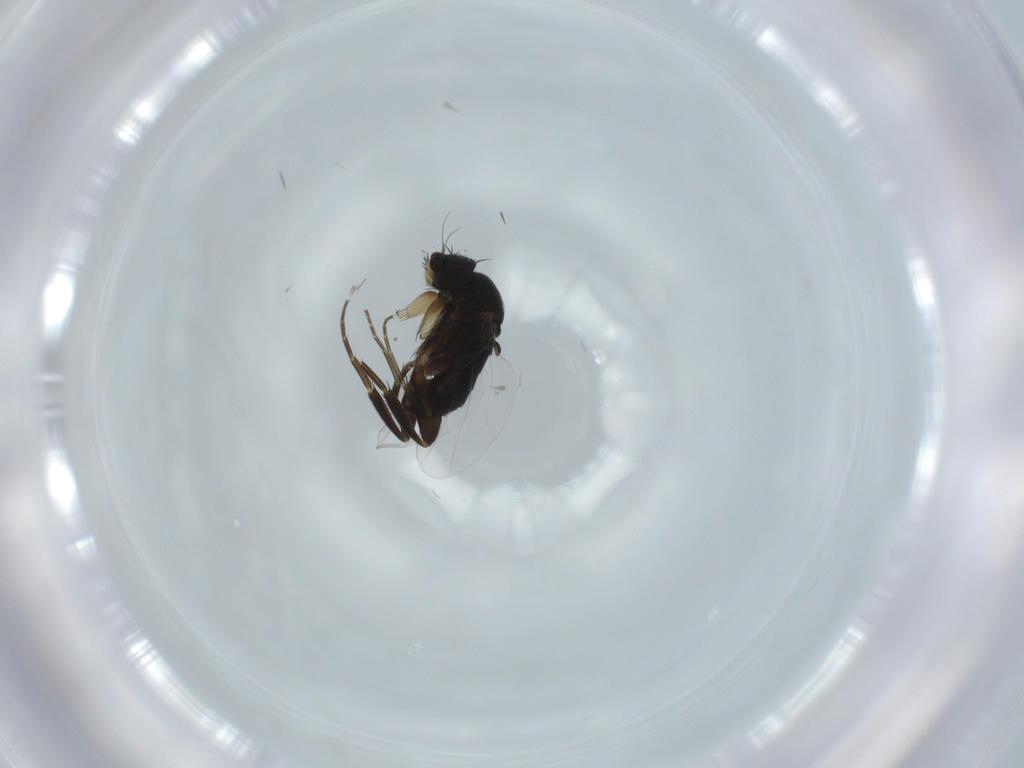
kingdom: Animalia
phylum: Arthropoda
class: Insecta
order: Diptera
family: Phoridae
